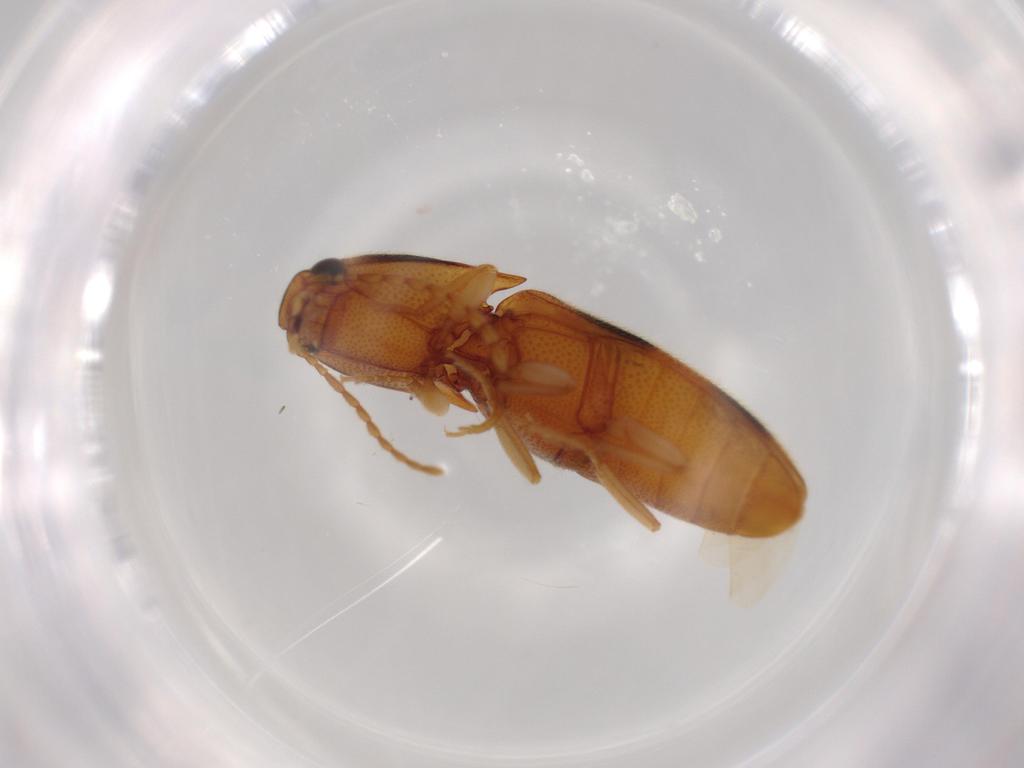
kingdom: Animalia
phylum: Arthropoda
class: Insecta
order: Coleoptera
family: Elateridae
